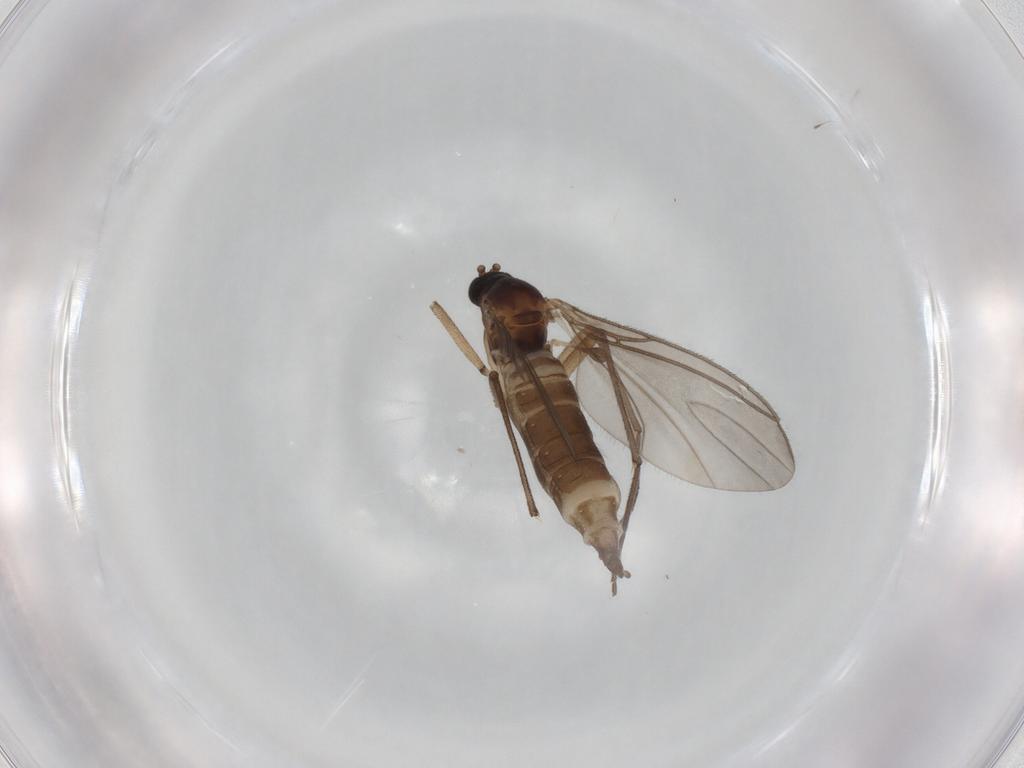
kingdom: Animalia
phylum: Arthropoda
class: Insecta
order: Diptera
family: Sciaridae
